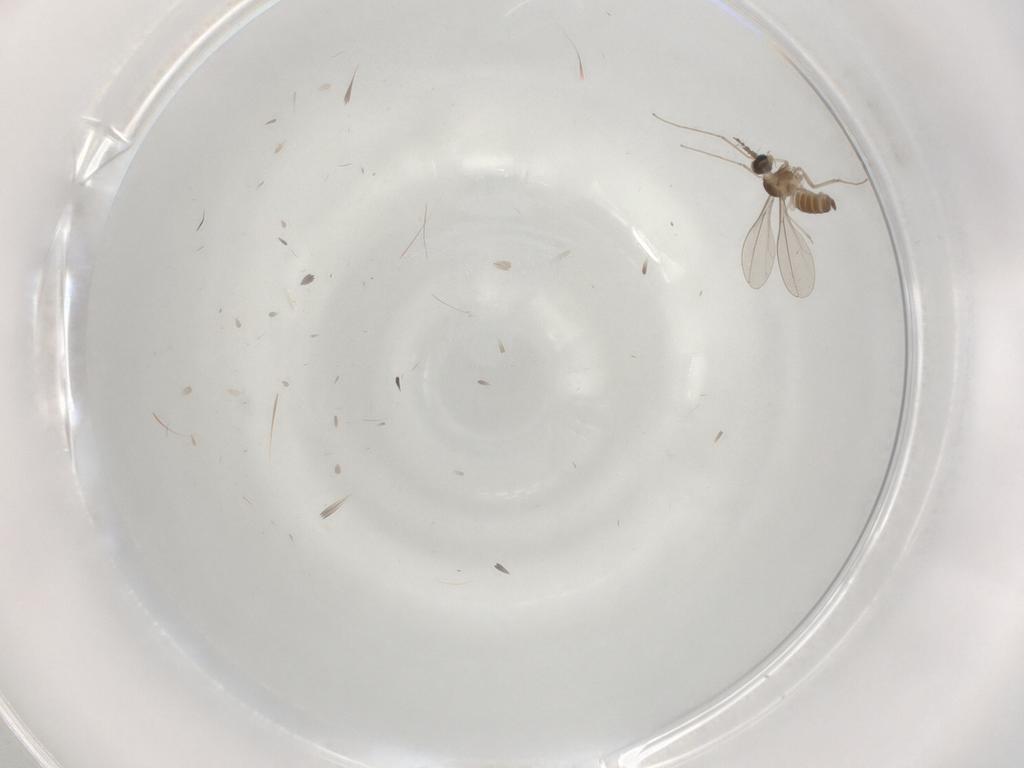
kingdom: Animalia
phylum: Arthropoda
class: Insecta
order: Diptera
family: Cecidomyiidae
